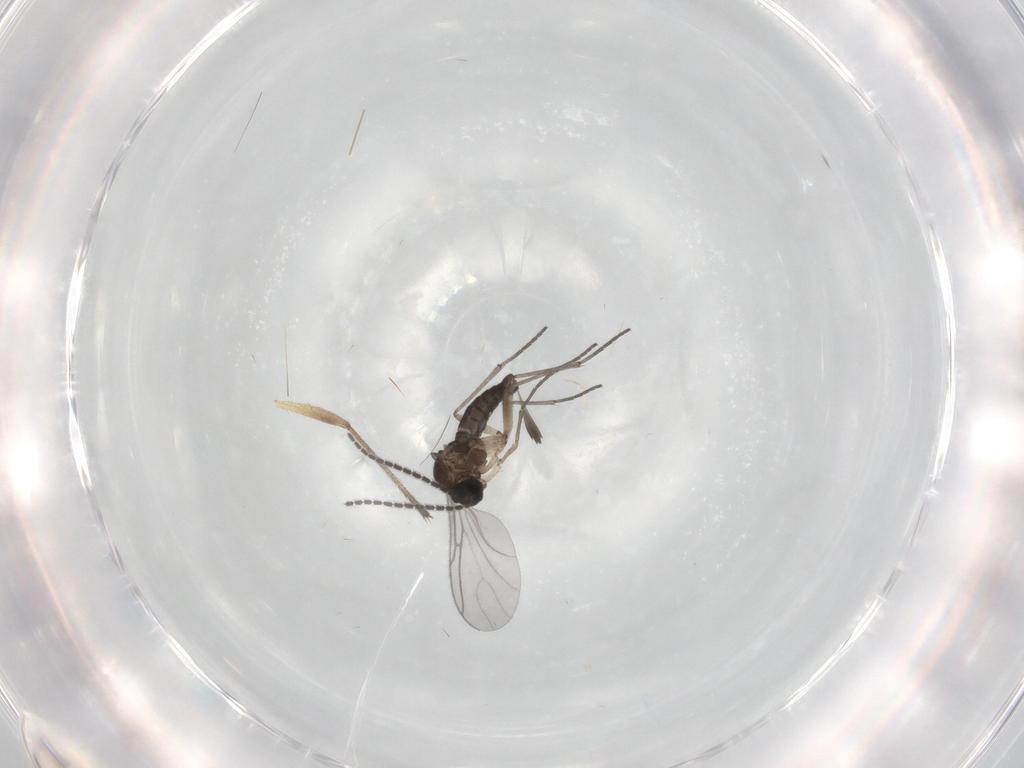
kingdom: Animalia
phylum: Arthropoda
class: Insecta
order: Diptera
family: Sciaridae
